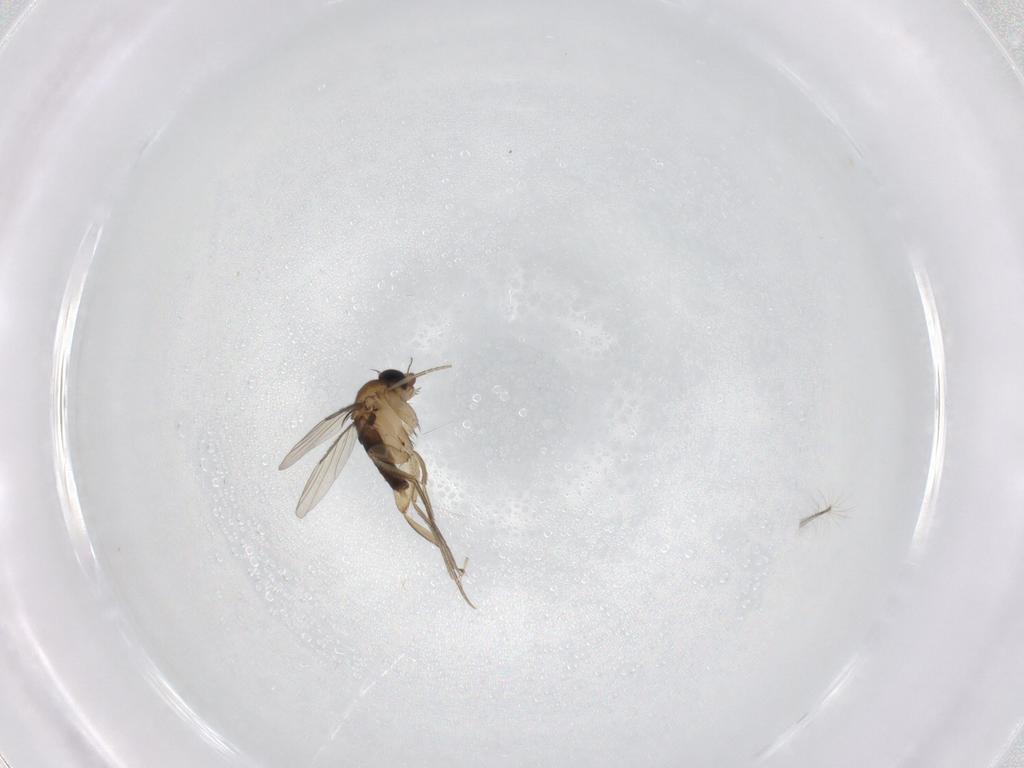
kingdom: Animalia
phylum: Arthropoda
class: Insecta
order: Diptera
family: Phoridae
